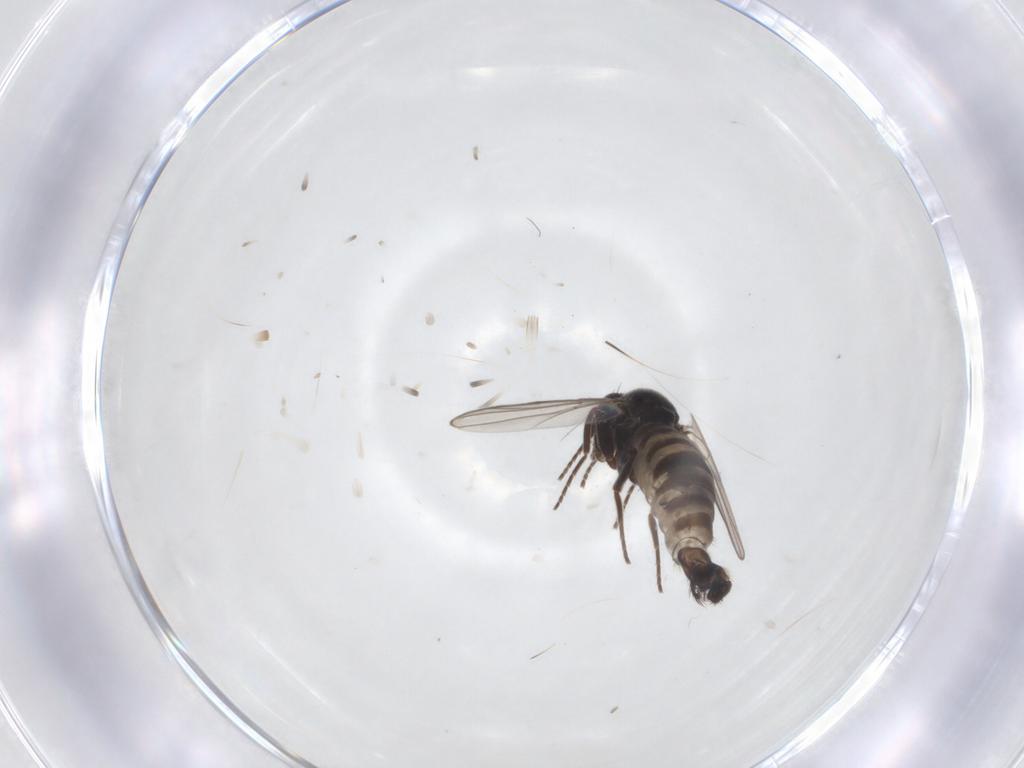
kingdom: Animalia
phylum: Arthropoda
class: Insecta
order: Diptera
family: Hybotidae
